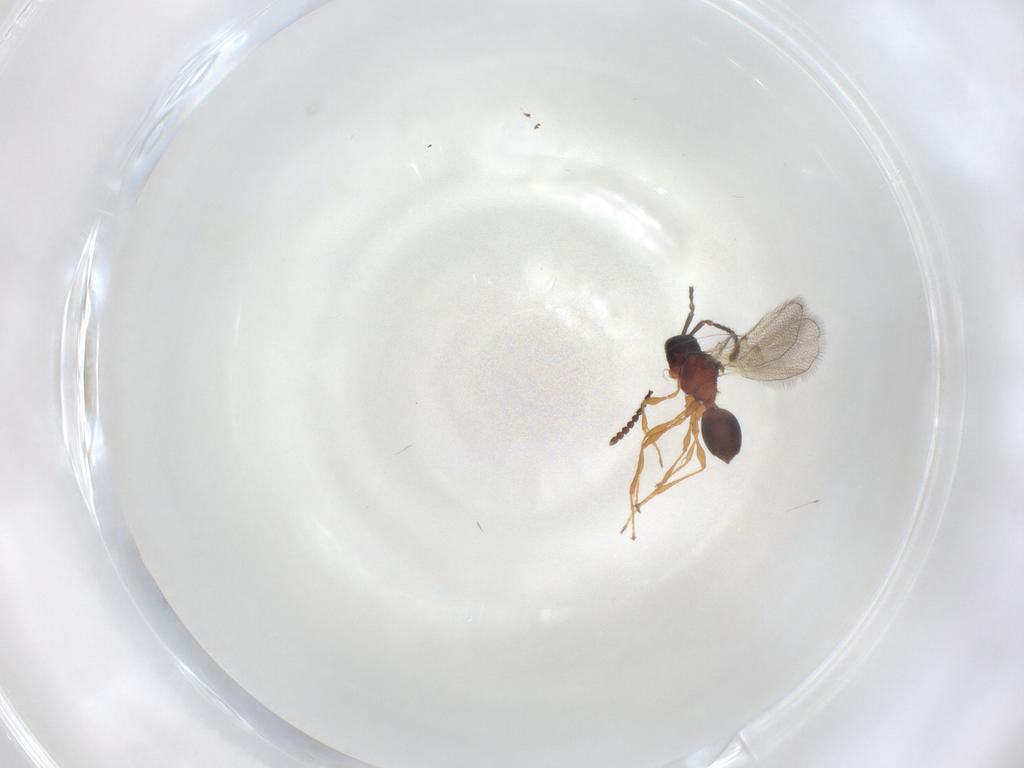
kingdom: Animalia
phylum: Arthropoda
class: Insecta
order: Hymenoptera
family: Diapriidae
